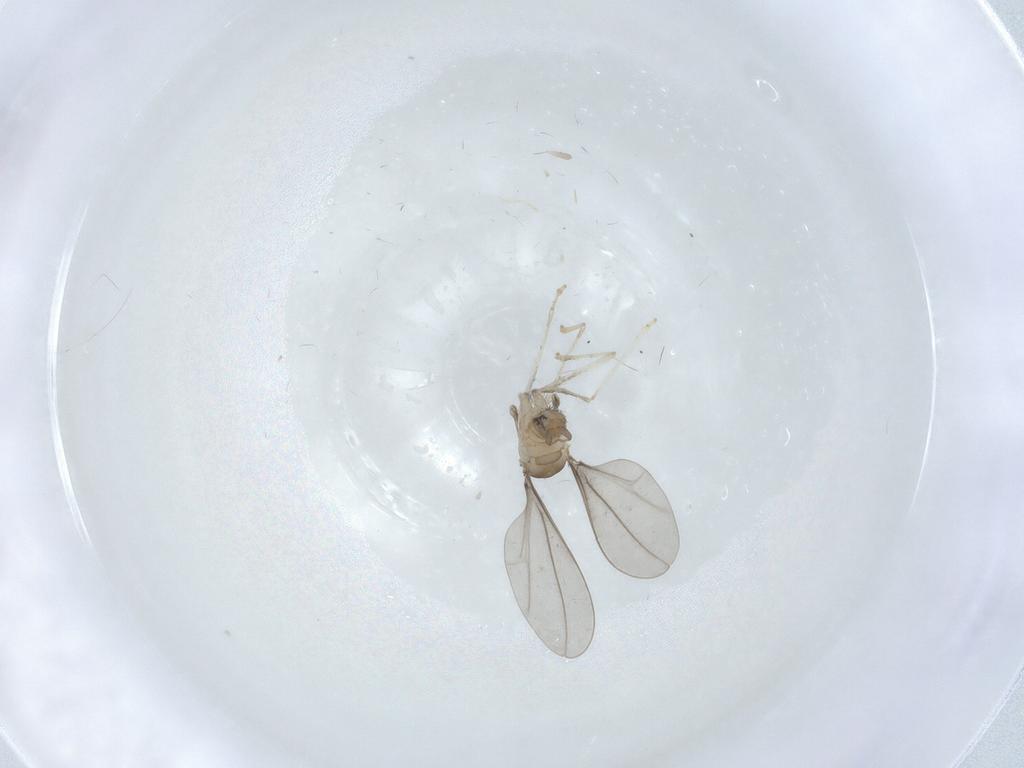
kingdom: Animalia
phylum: Arthropoda
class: Insecta
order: Diptera
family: Cecidomyiidae
